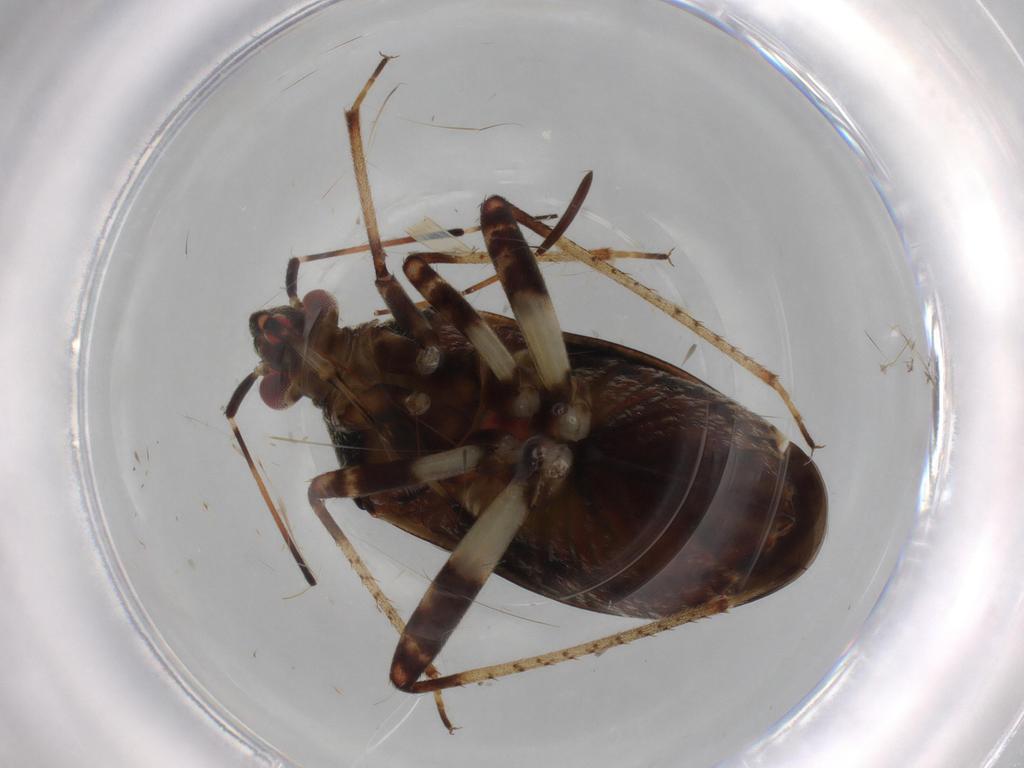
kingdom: Animalia
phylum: Arthropoda
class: Insecta
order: Hemiptera
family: Miridae
